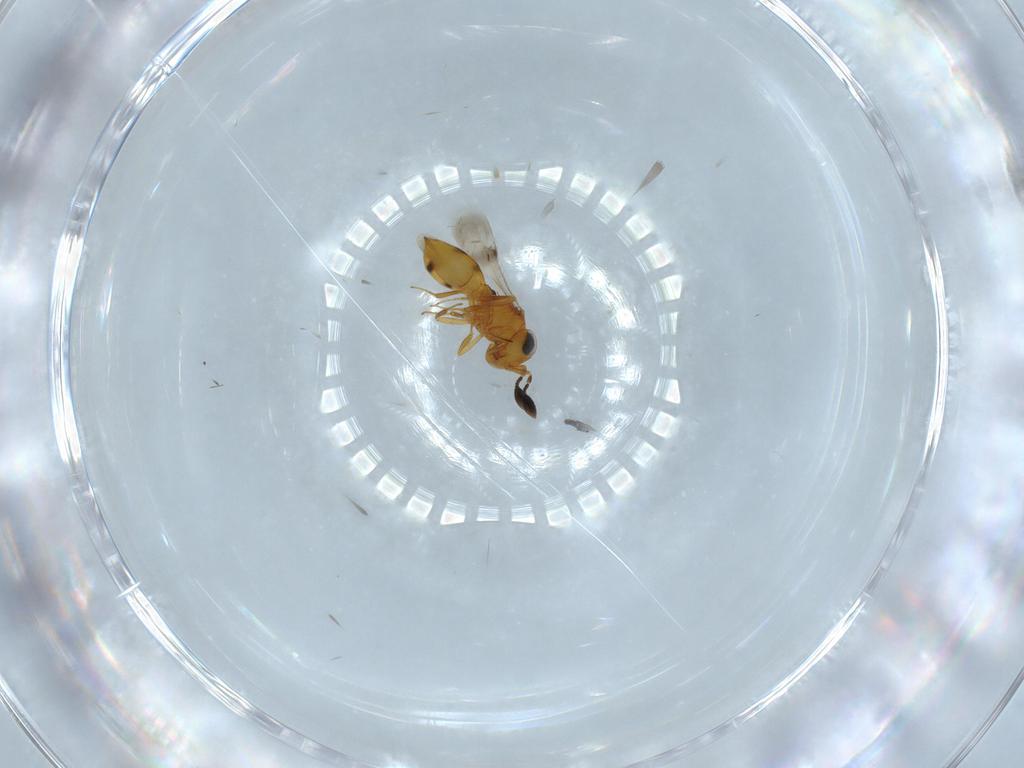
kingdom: Animalia
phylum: Arthropoda
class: Insecta
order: Hymenoptera
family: Scelionidae
